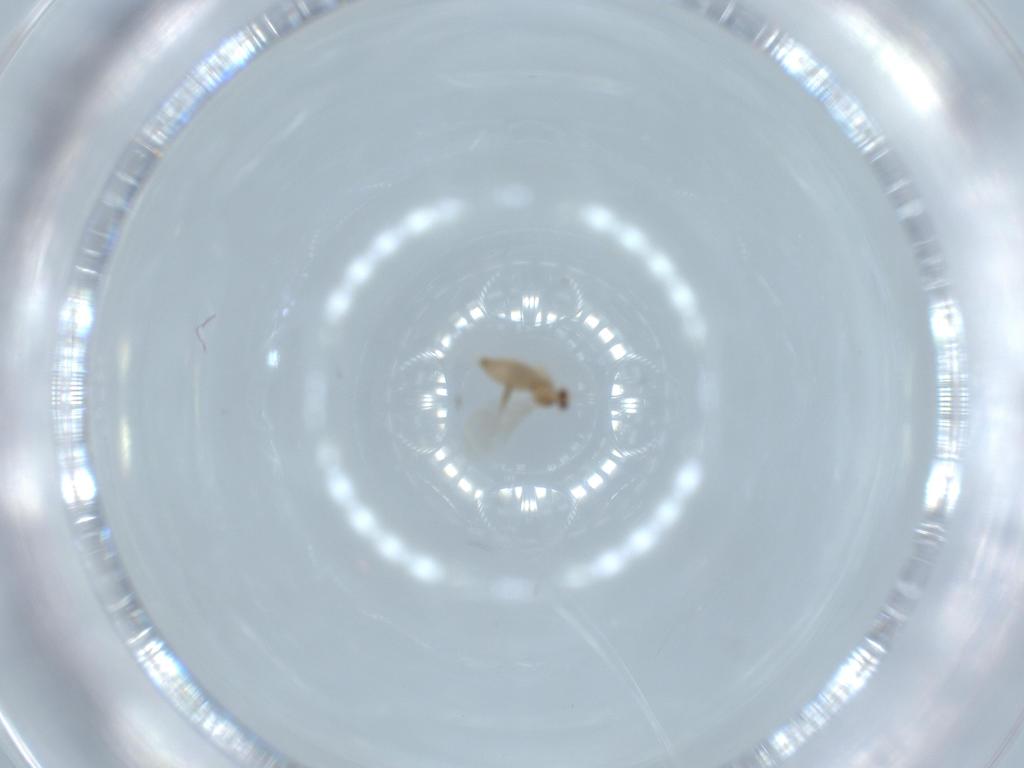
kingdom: Animalia
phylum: Arthropoda
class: Insecta
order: Diptera
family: Cecidomyiidae
